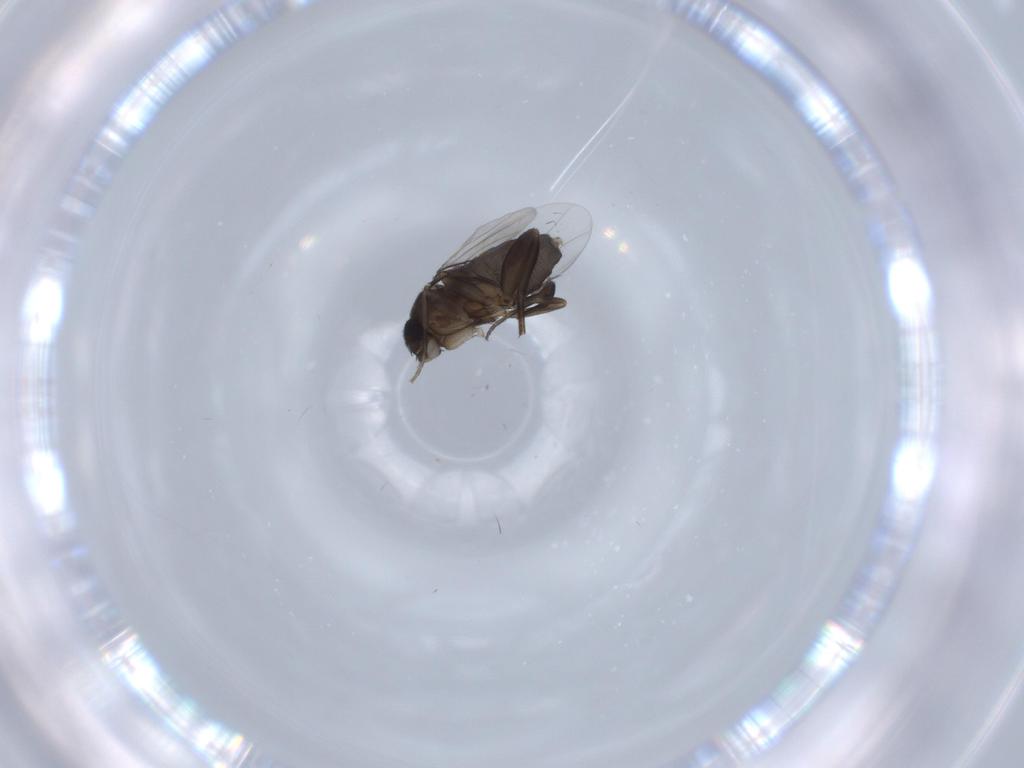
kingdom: Animalia
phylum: Arthropoda
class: Insecta
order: Diptera
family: Phoridae
